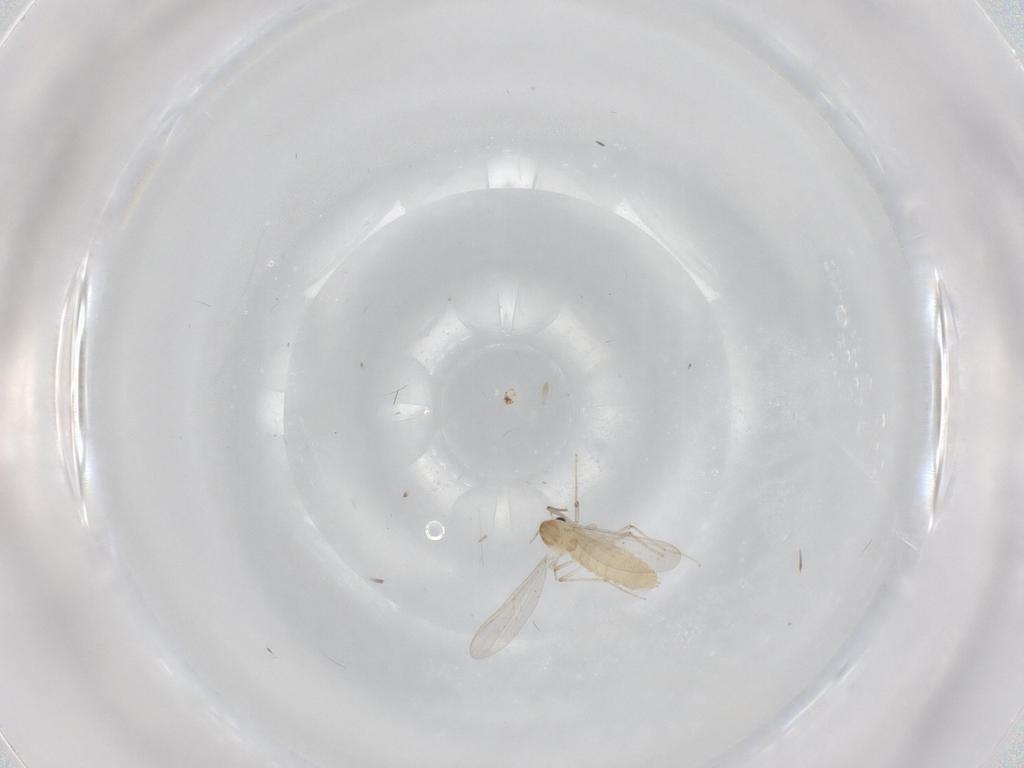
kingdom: Animalia
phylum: Arthropoda
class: Insecta
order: Diptera
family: Chironomidae
